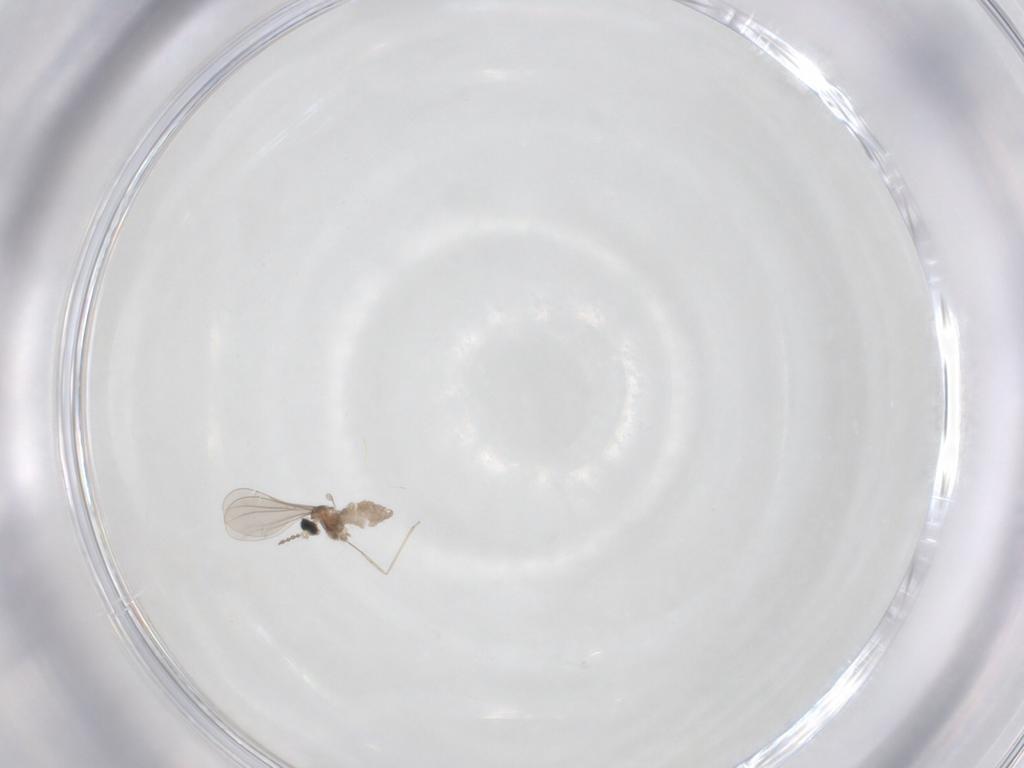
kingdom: Animalia
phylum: Arthropoda
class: Insecta
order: Diptera
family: Cecidomyiidae
